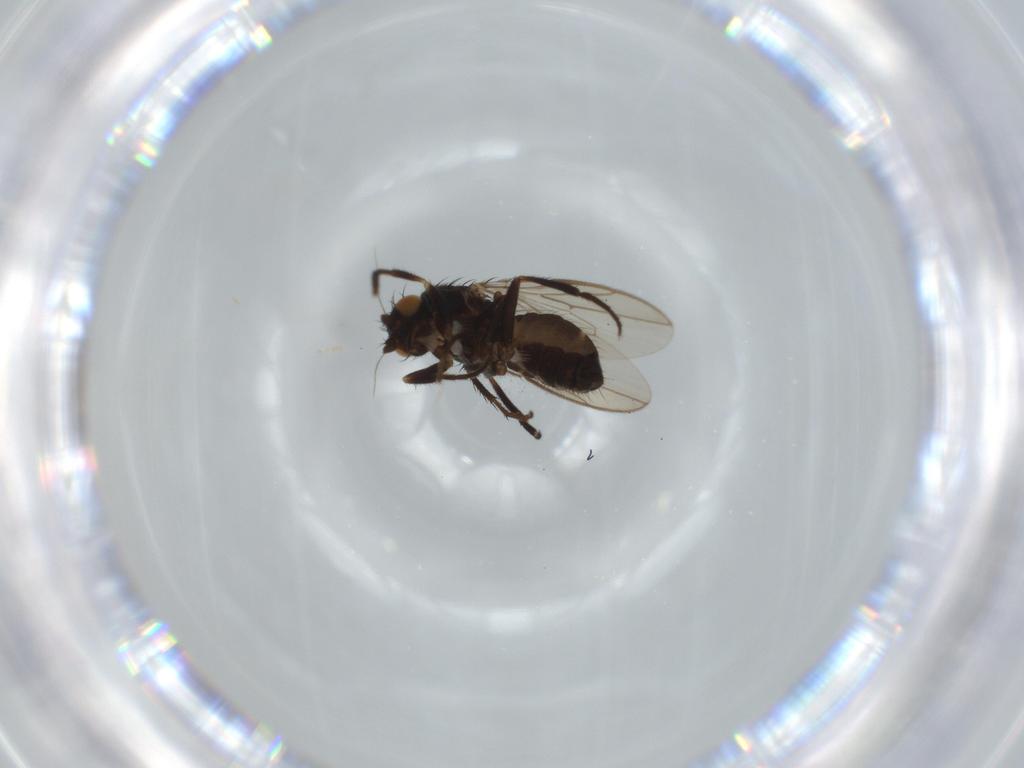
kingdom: Animalia
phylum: Arthropoda
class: Insecta
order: Diptera
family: Sphaeroceridae
